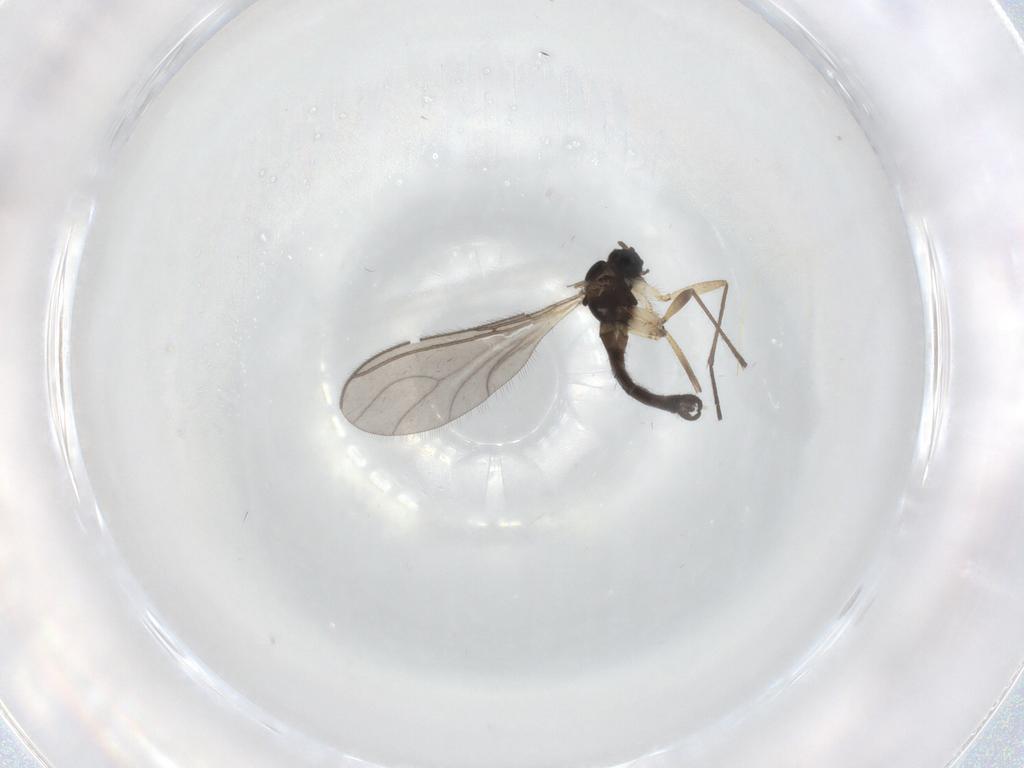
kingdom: Animalia
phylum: Arthropoda
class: Insecta
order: Diptera
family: Sciaridae
